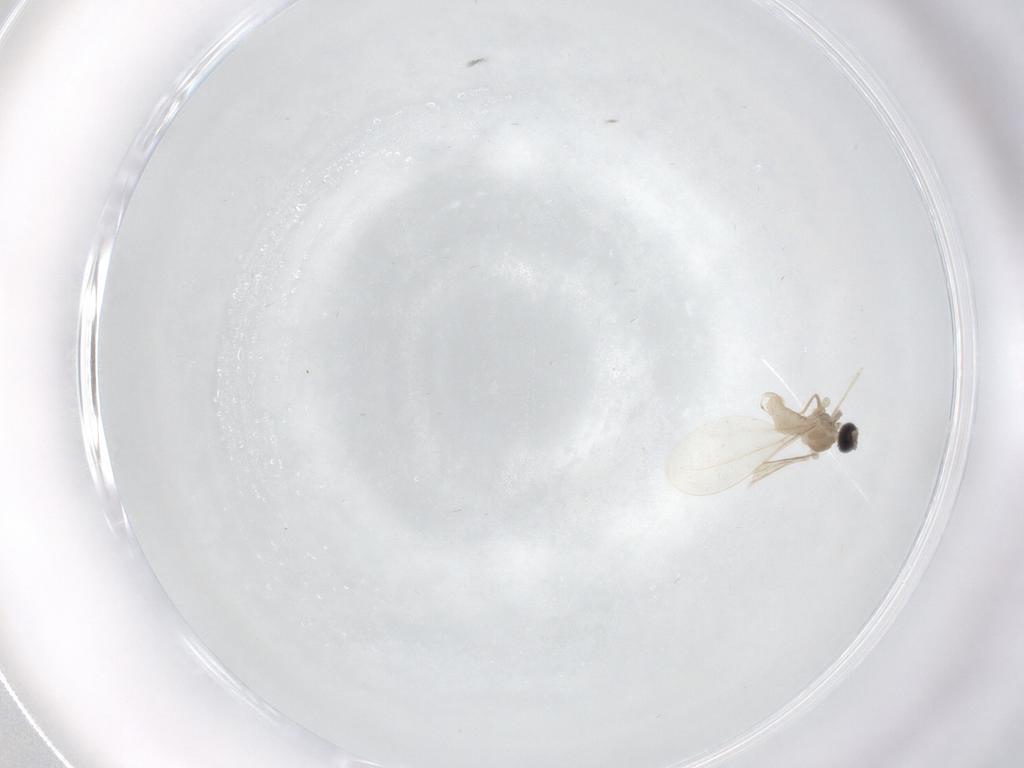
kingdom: Animalia
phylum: Arthropoda
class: Insecta
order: Diptera
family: Cecidomyiidae
